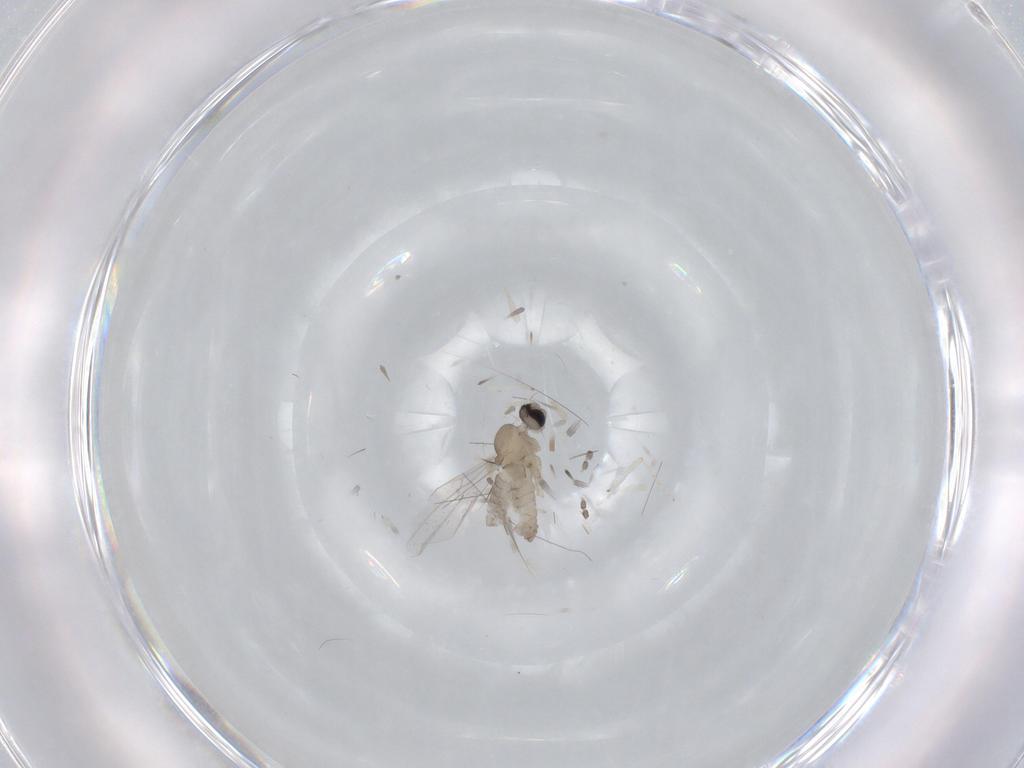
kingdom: Animalia
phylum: Arthropoda
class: Insecta
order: Diptera
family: Cecidomyiidae
